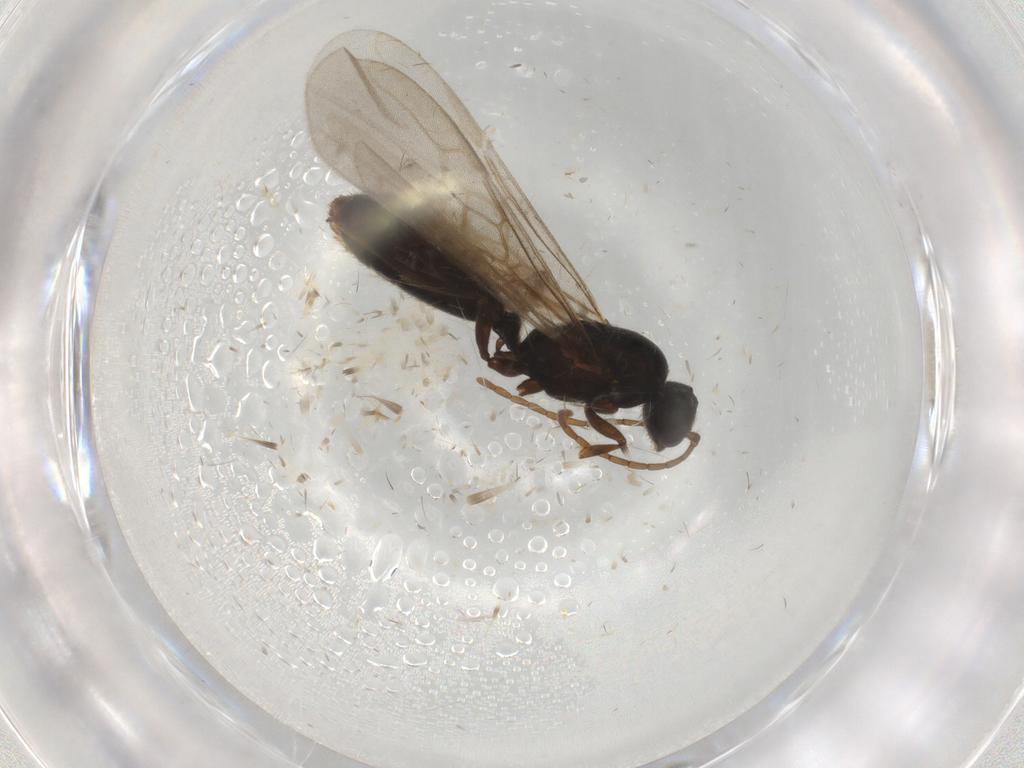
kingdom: Animalia
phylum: Arthropoda
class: Insecta
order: Hymenoptera
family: Formicidae
